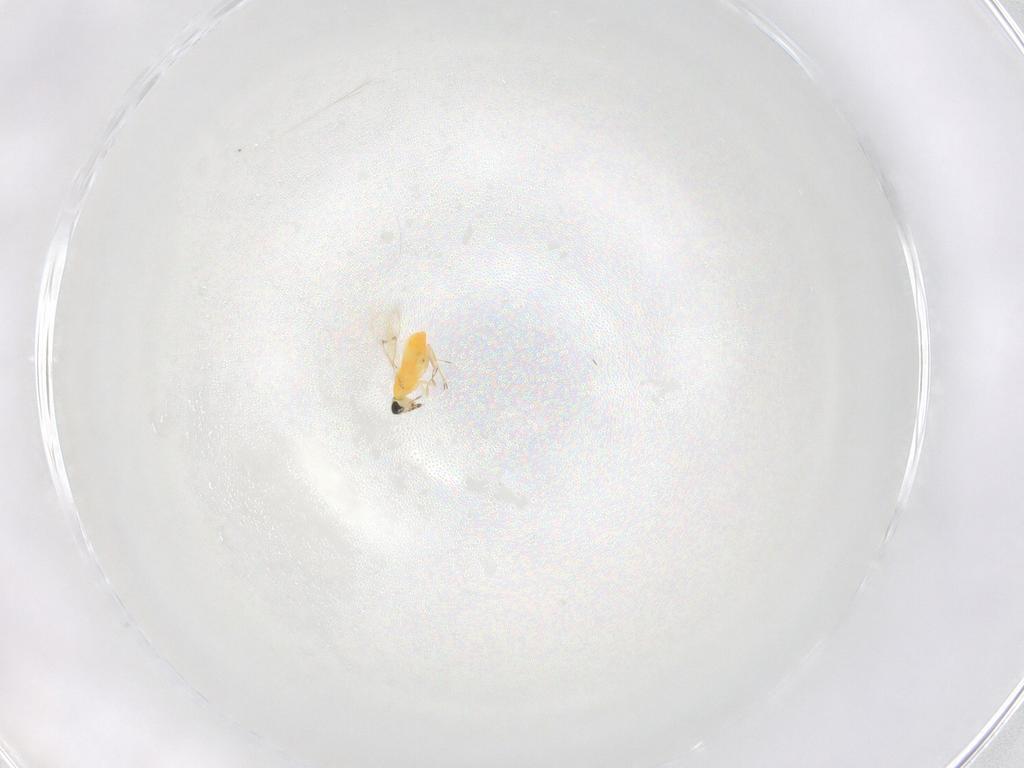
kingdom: Animalia
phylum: Arthropoda
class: Insecta
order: Hymenoptera
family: Trichogrammatidae
